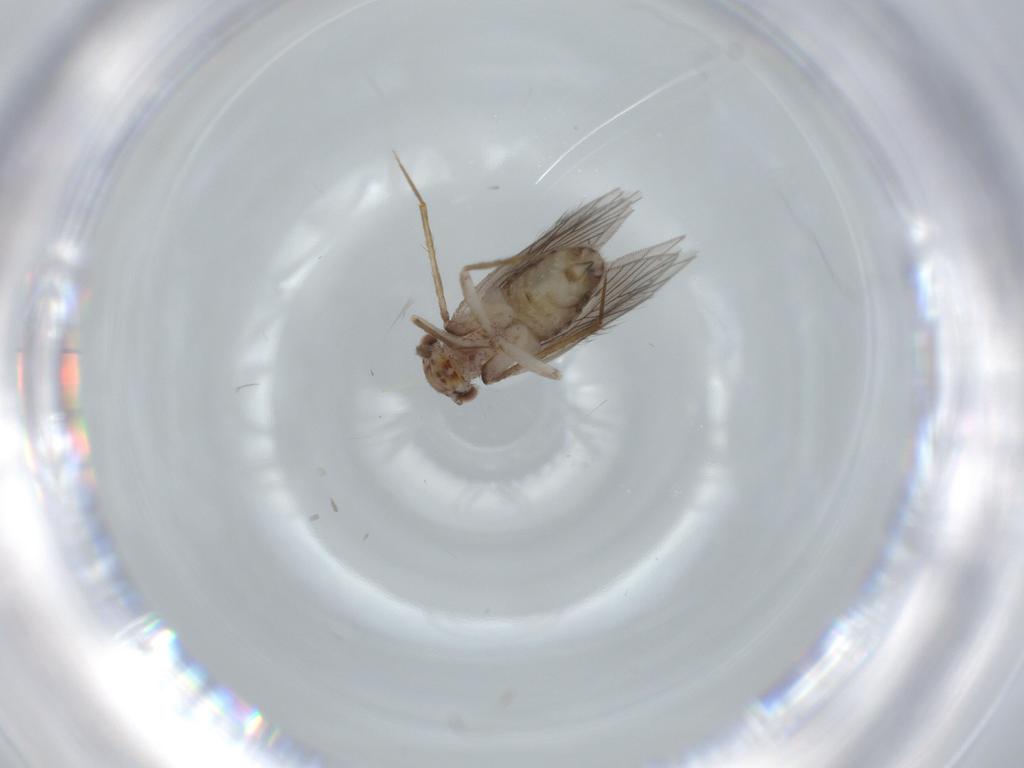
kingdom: Animalia
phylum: Arthropoda
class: Insecta
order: Psocodea
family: Lepidopsocidae
